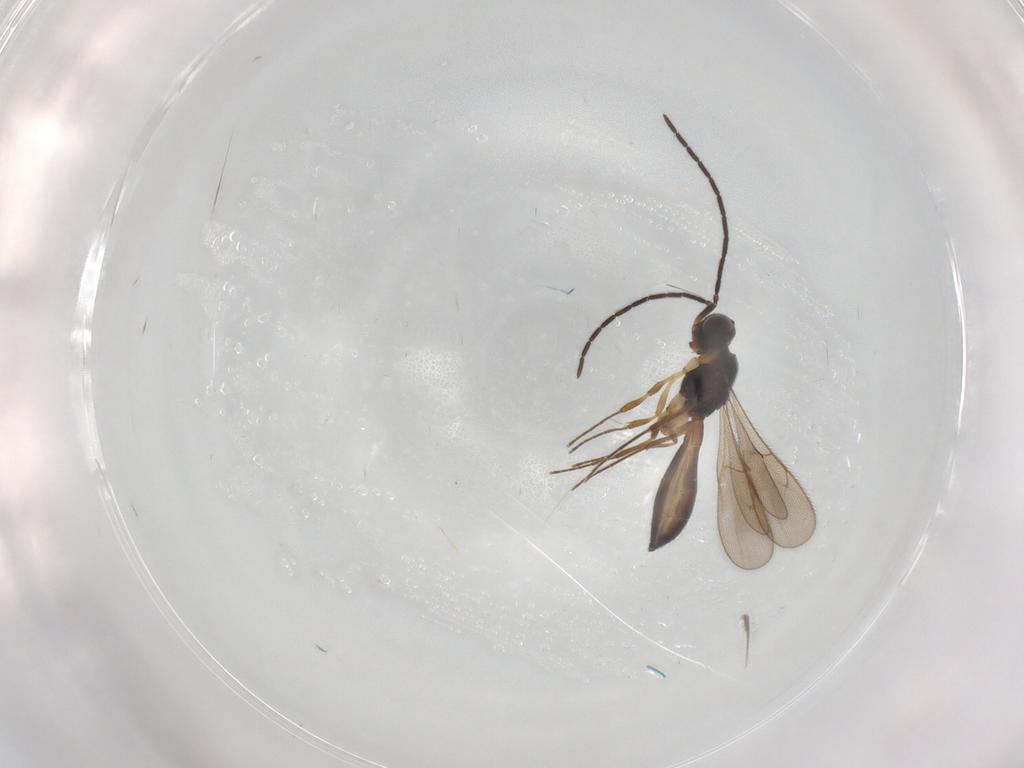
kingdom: Animalia
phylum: Arthropoda
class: Insecta
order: Hymenoptera
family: Scelionidae
